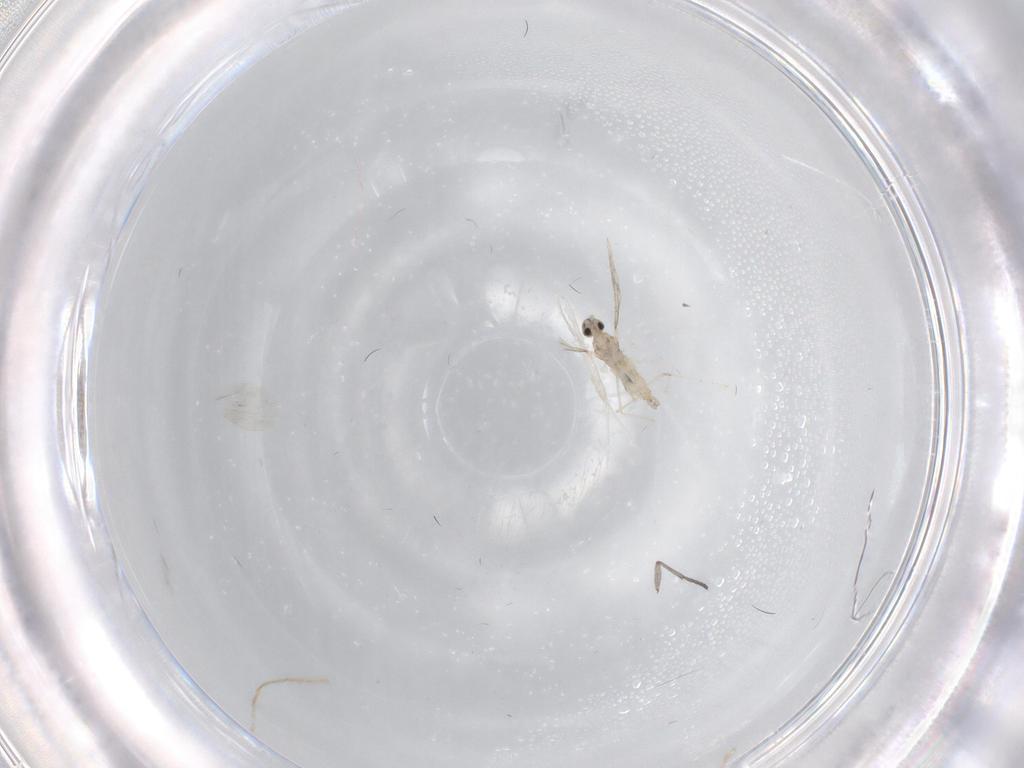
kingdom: Animalia
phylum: Arthropoda
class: Insecta
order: Diptera
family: Sciaridae
